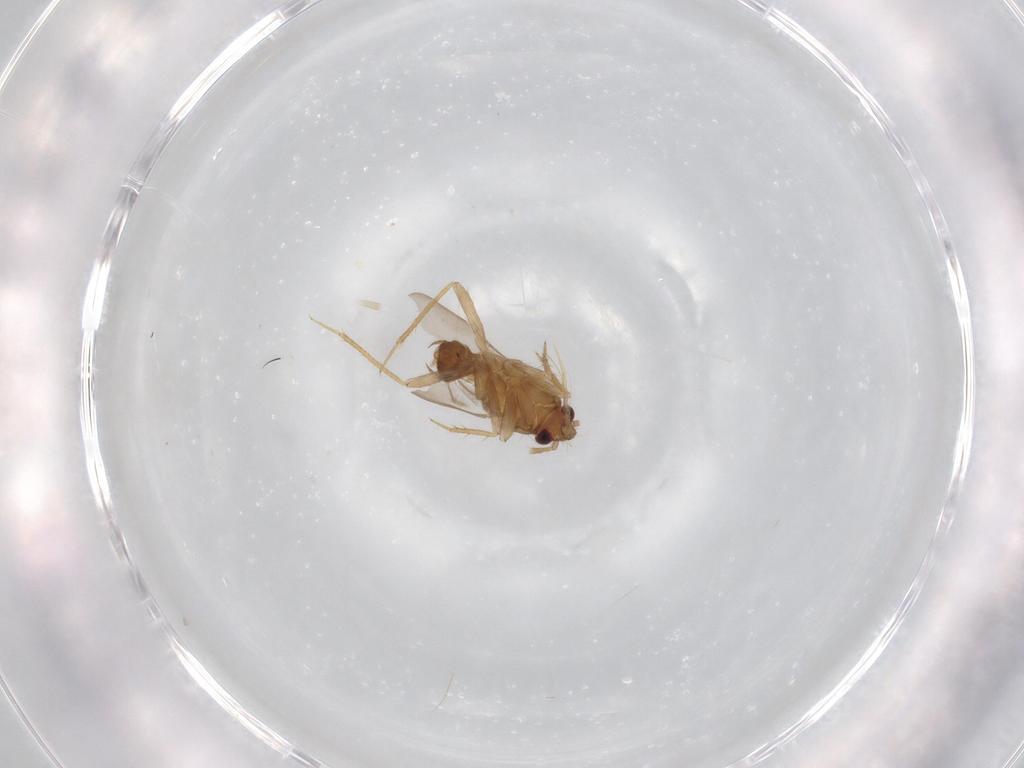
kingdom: Animalia
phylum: Arthropoda
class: Insecta
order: Hemiptera
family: Ceratocombidae
